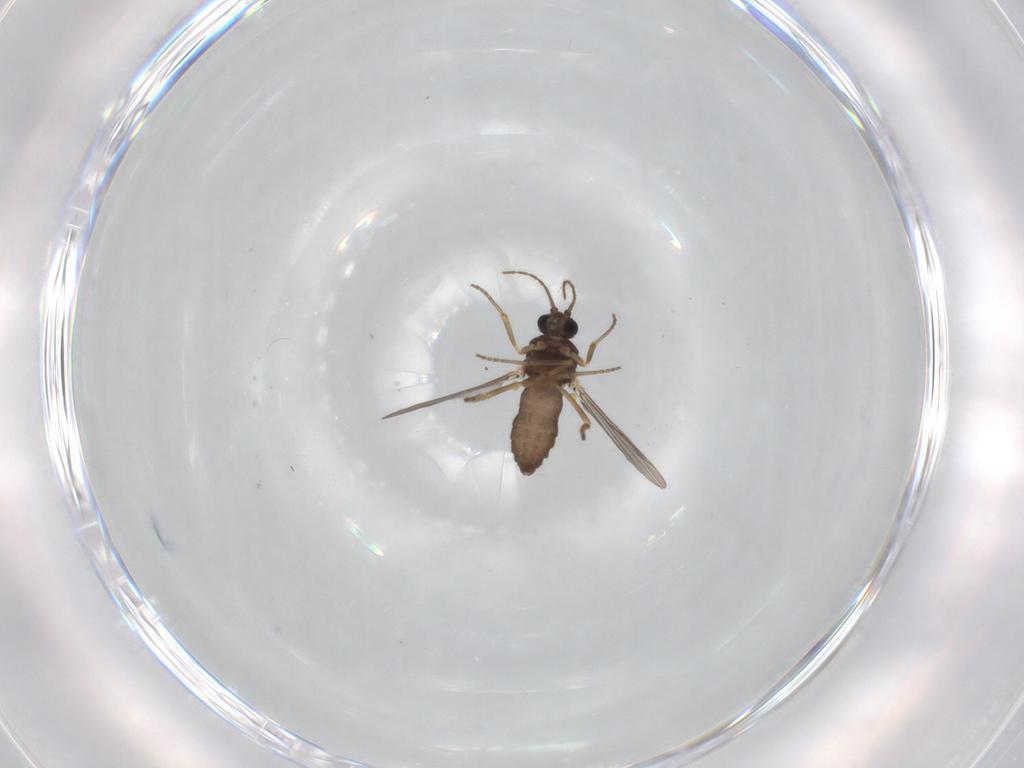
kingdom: Animalia
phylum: Arthropoda
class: Insecta
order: Diptera
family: Ceratopogonidae
